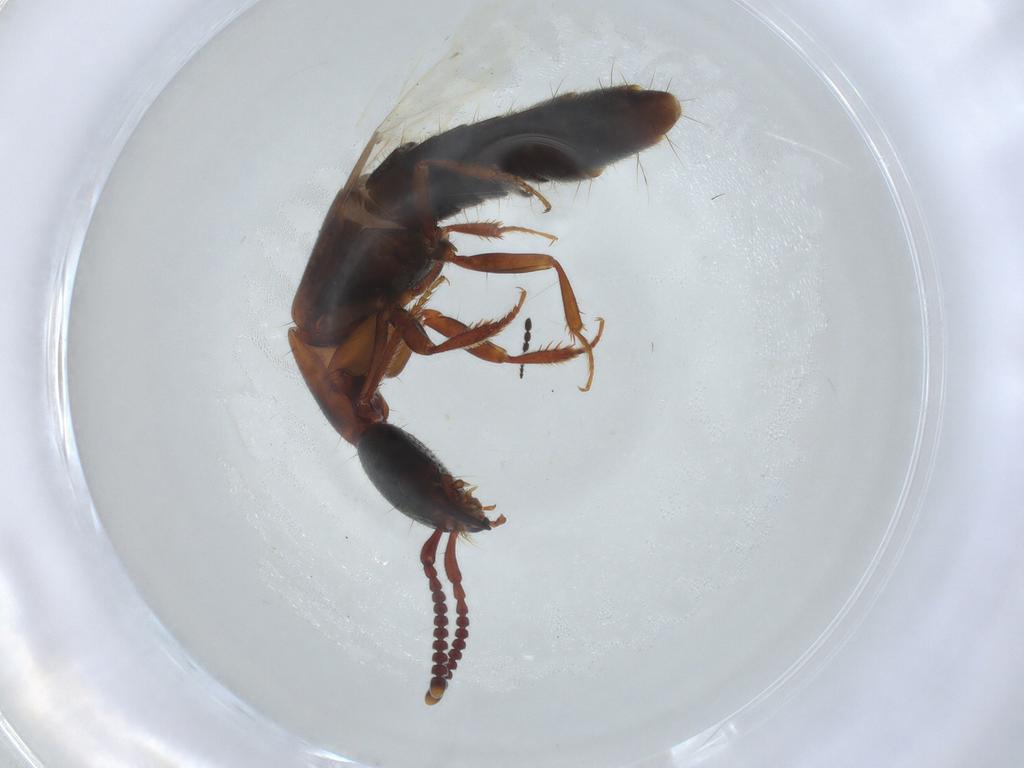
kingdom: Animalia
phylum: Arthropoda
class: Insecta
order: Coleoptera
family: Staphylinidae
